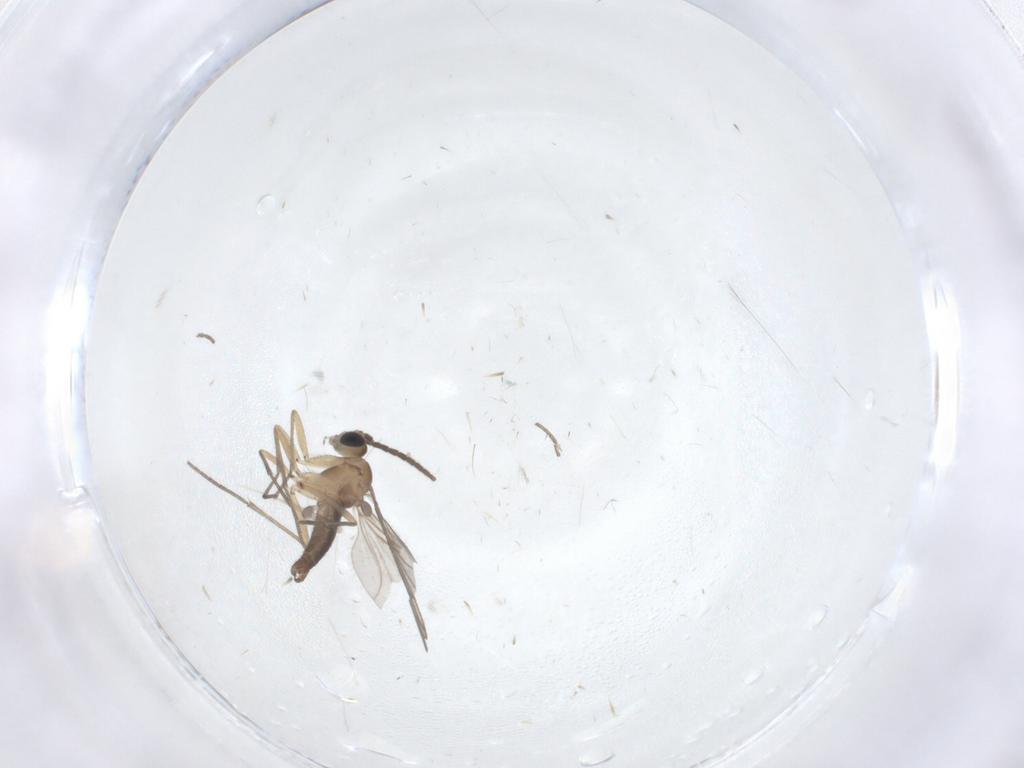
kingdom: Animalia
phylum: Arthropoda
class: Insecta
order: Diptera
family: Sciaridae
